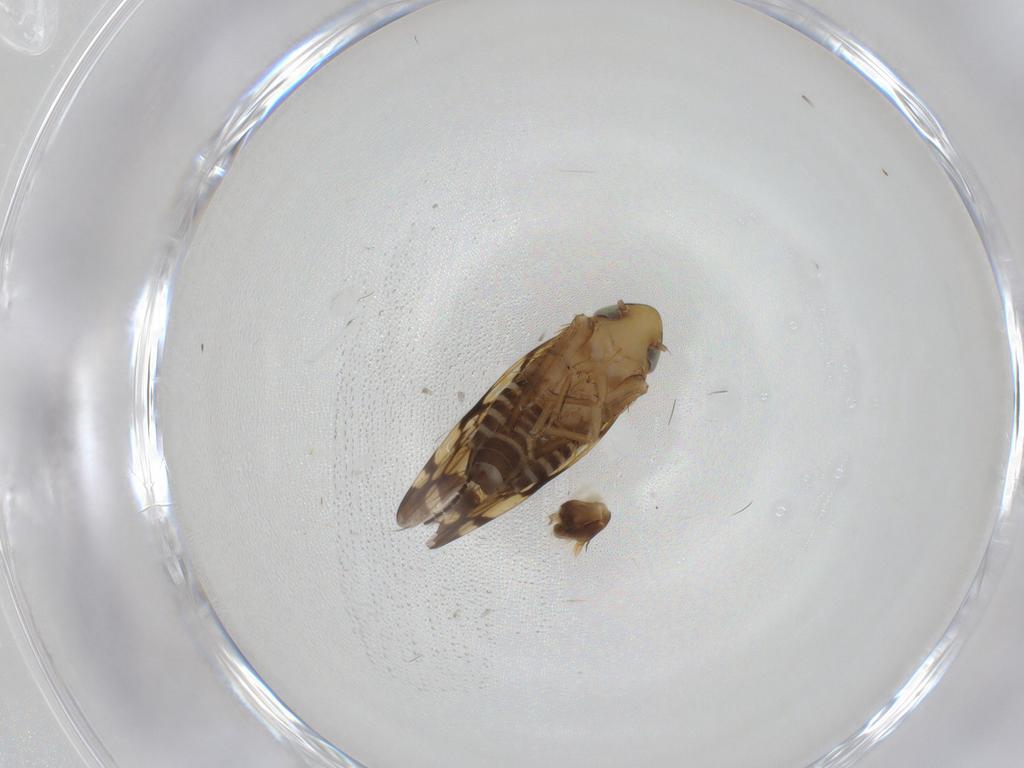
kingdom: Animalia
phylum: Arthropoda
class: Insecta
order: Hemiptera
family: Cicadellidae
